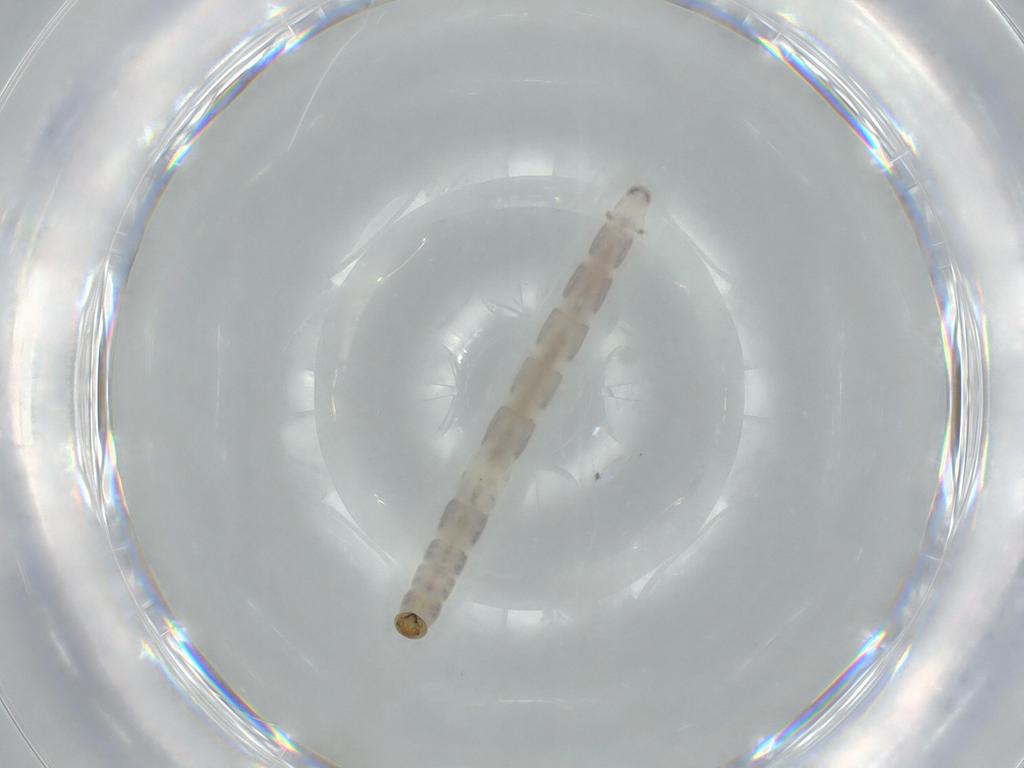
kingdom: Animalia
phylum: Arthropoda
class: Insecta
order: Diptera
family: Chironomidae
